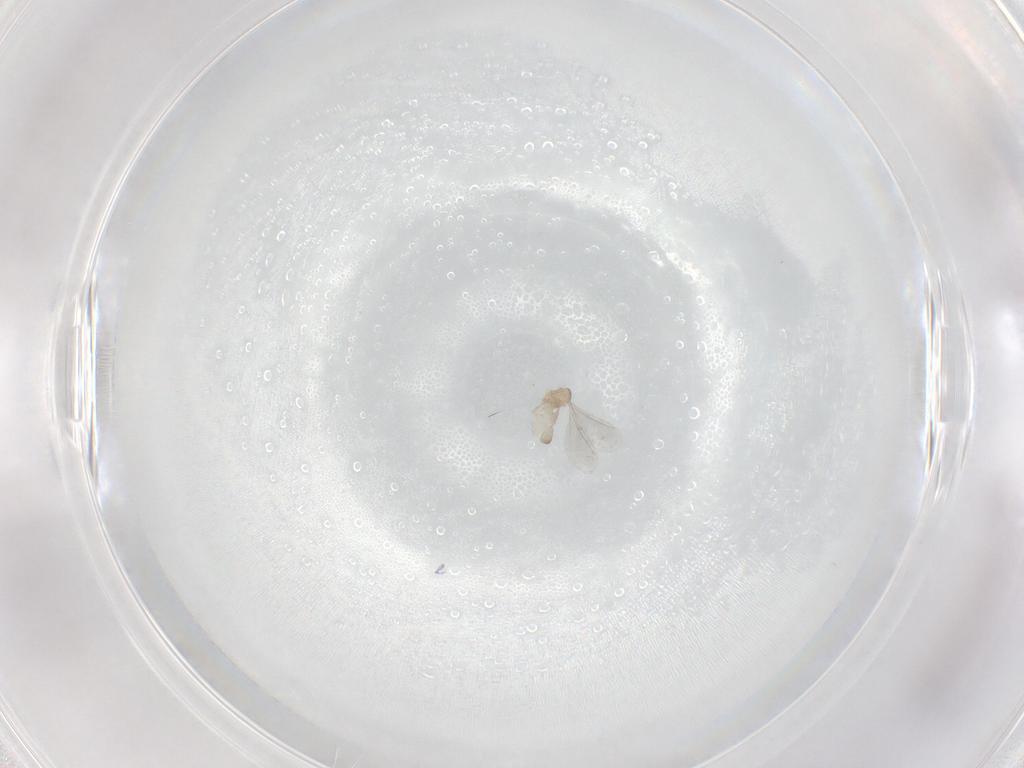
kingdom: Animalia
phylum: Arthropoda
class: Insecta
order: Diptera
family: Cecidomyiidae
